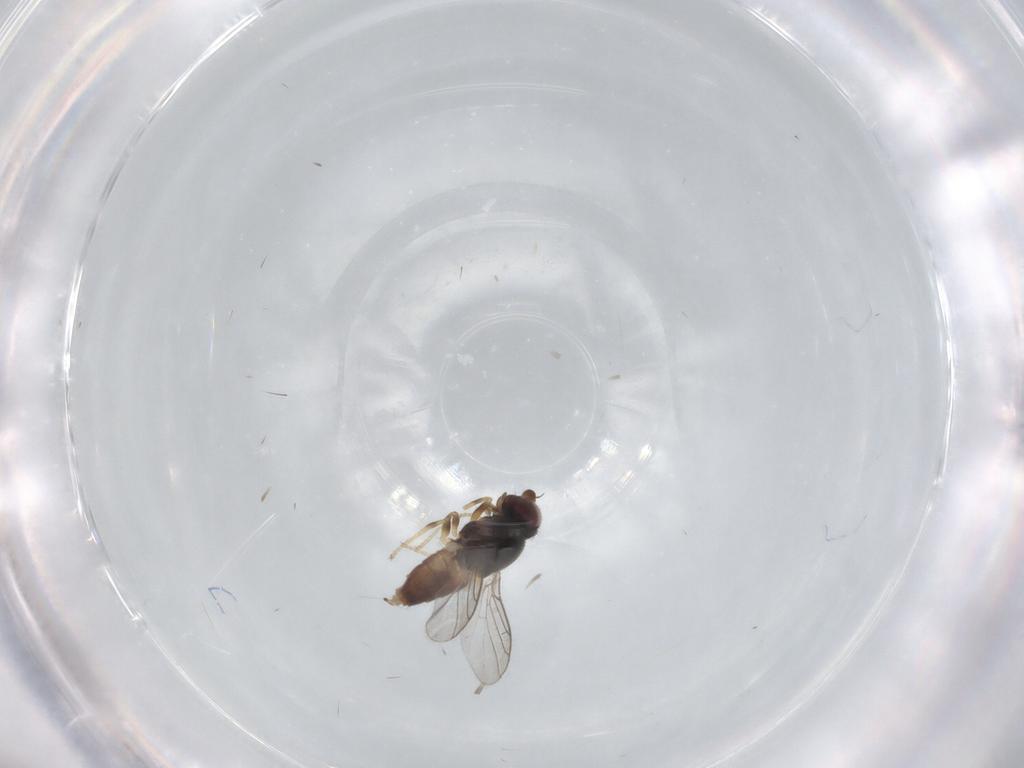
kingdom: Animalia
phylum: Arthropoda
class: Insecta
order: Diptera
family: Chloropidae
